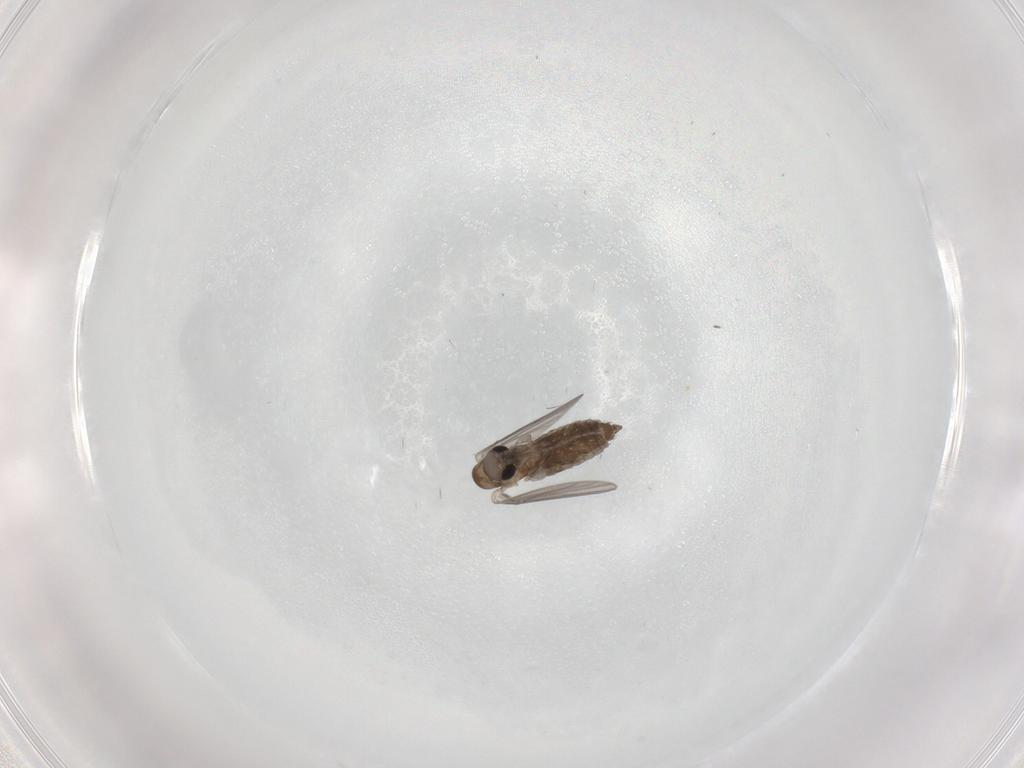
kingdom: Animalia
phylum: Arthropoda
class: Insecta
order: Diptera
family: Limoniidae
